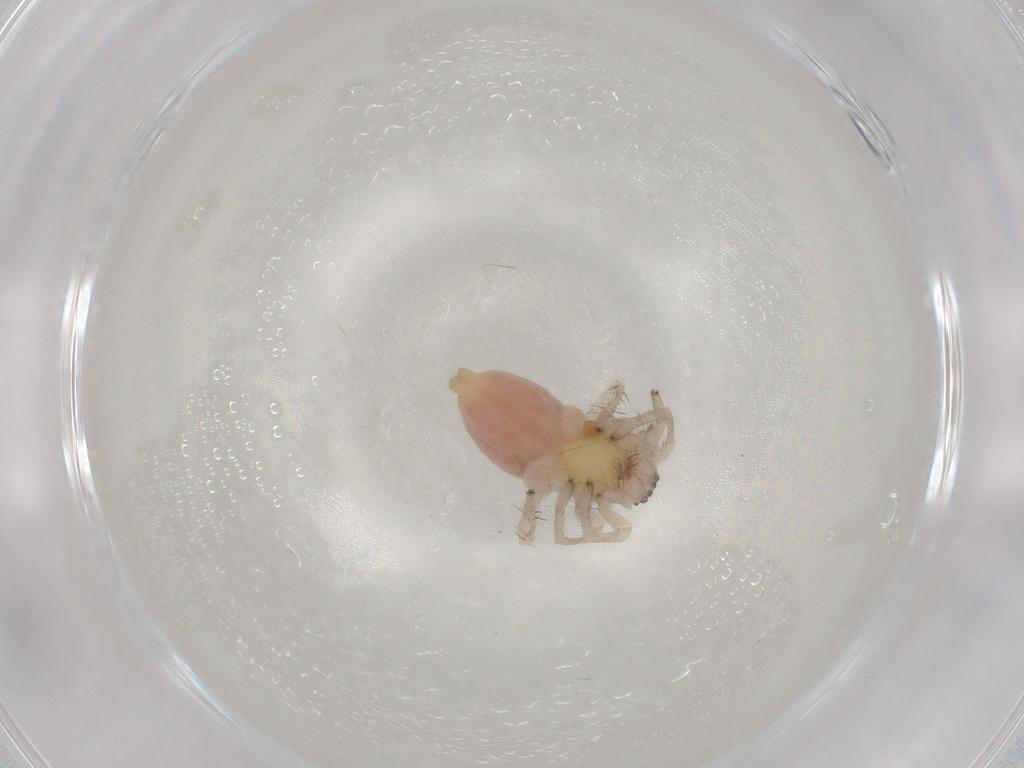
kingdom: Animalia
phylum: Arthropoda
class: Arachnida
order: Araneae
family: Clubionidae
